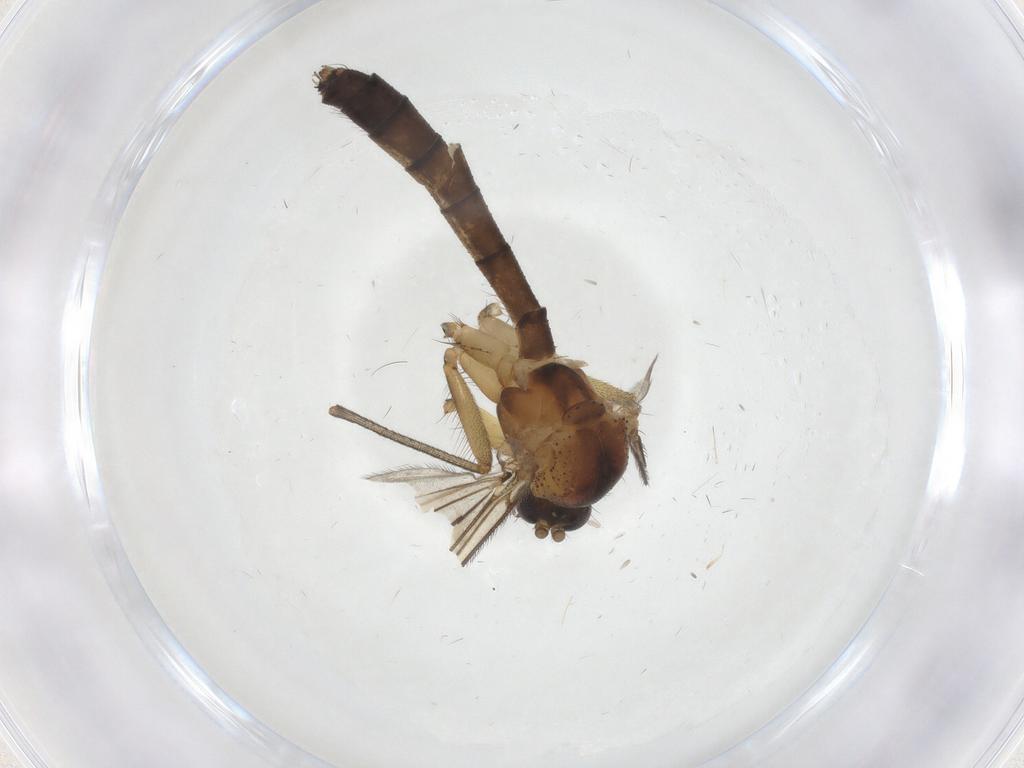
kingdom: Animalia
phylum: Arthropoda
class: Insecta
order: Diptera
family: Mycetophilidae
